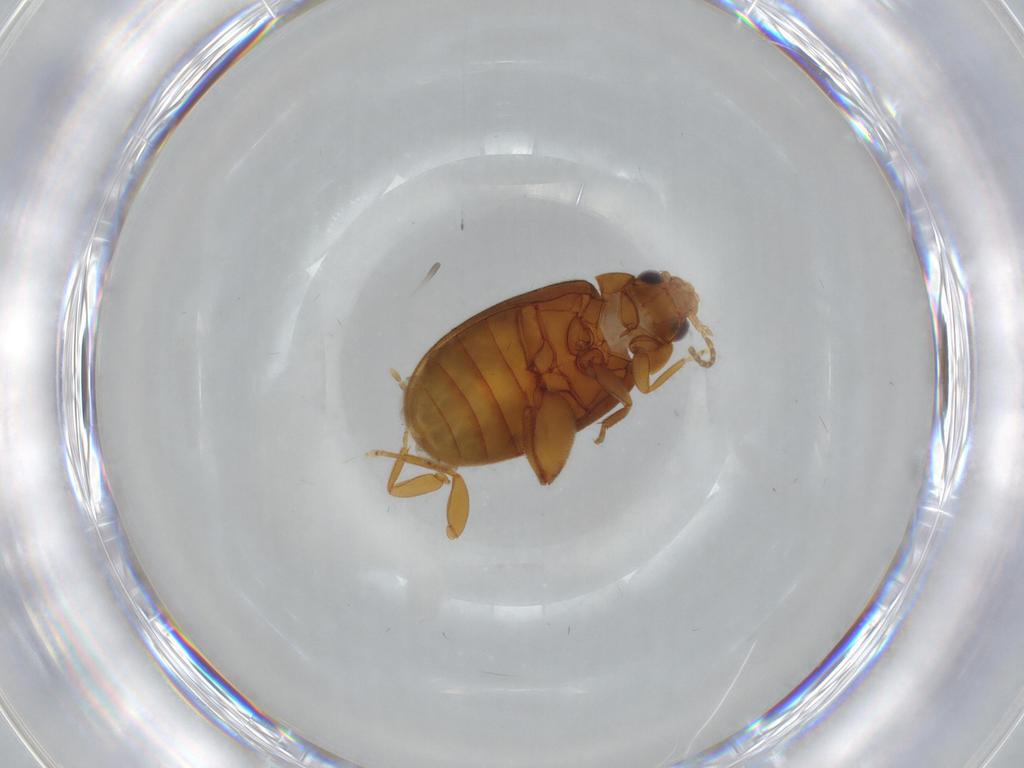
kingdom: Animalia
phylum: Arthropoda
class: Insecta
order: Coleoptera
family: Scirtidae
